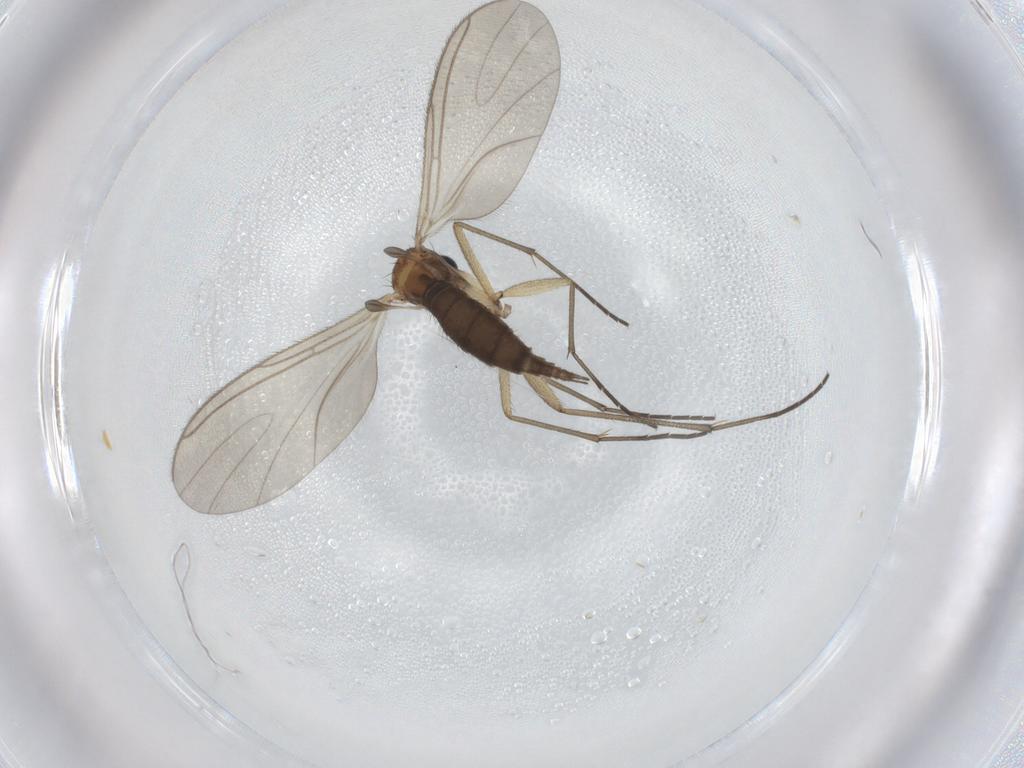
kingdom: Animalia
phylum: Arthropoda
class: Insecta
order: Diptera
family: Sciaridae
